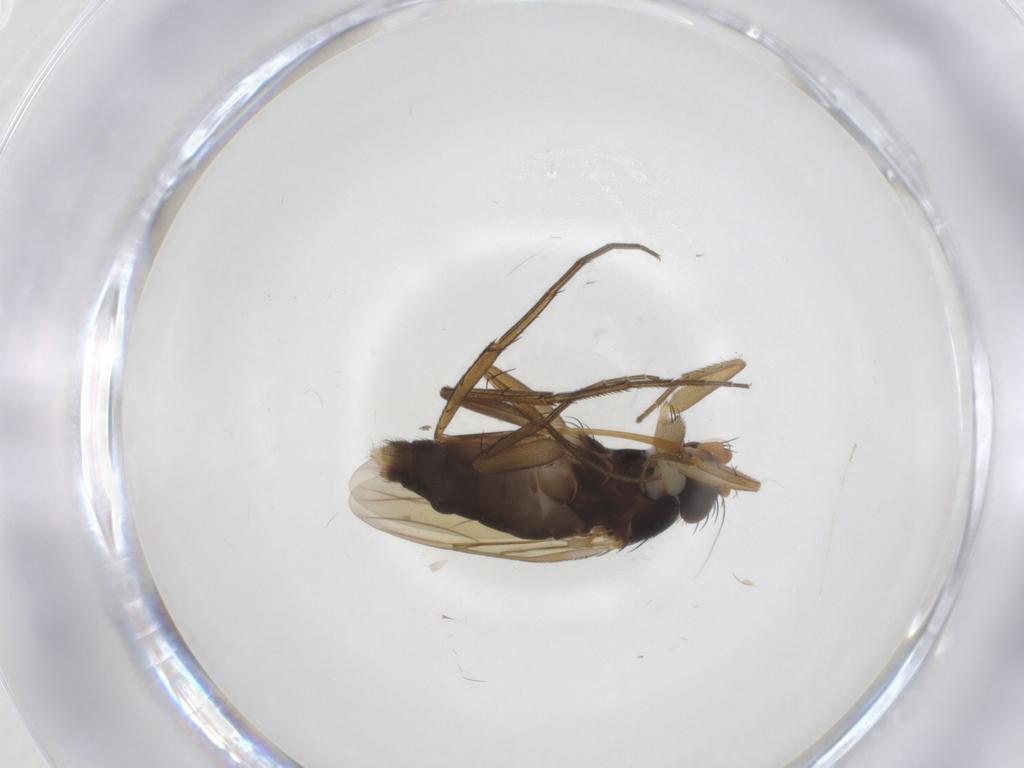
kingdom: Animalia
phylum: Arthropoda
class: Insecta
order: Diptera
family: Phoridae
